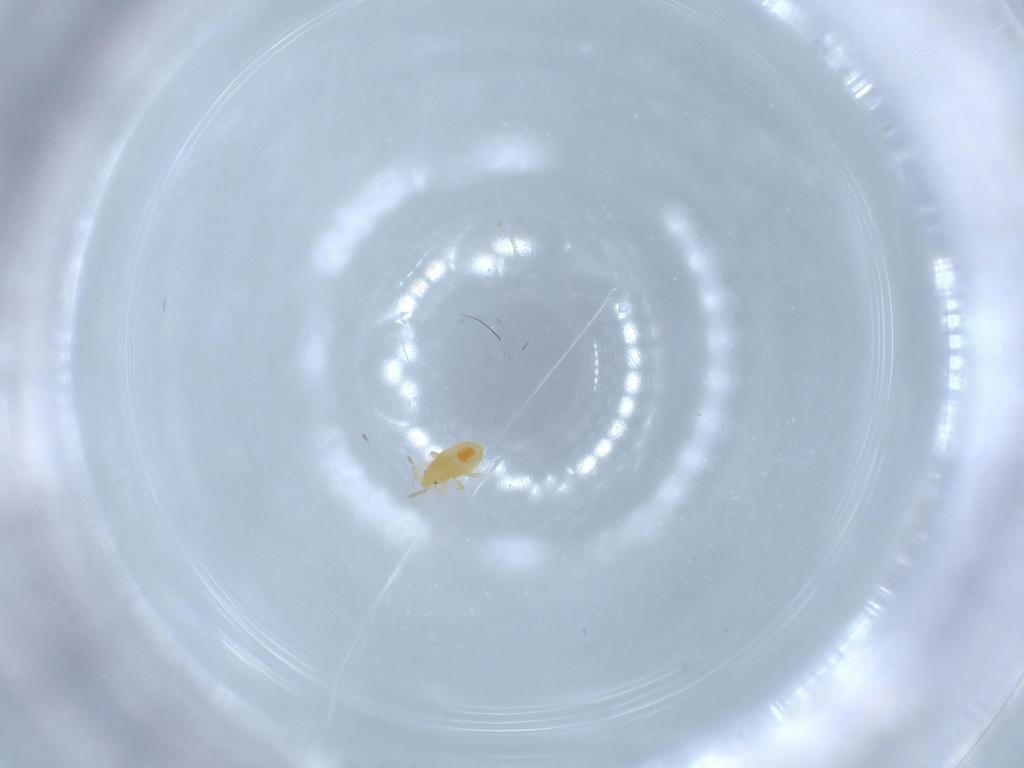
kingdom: Animalia
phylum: Arthropoda
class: Insecta
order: Hemiptera
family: Anthocoridae
